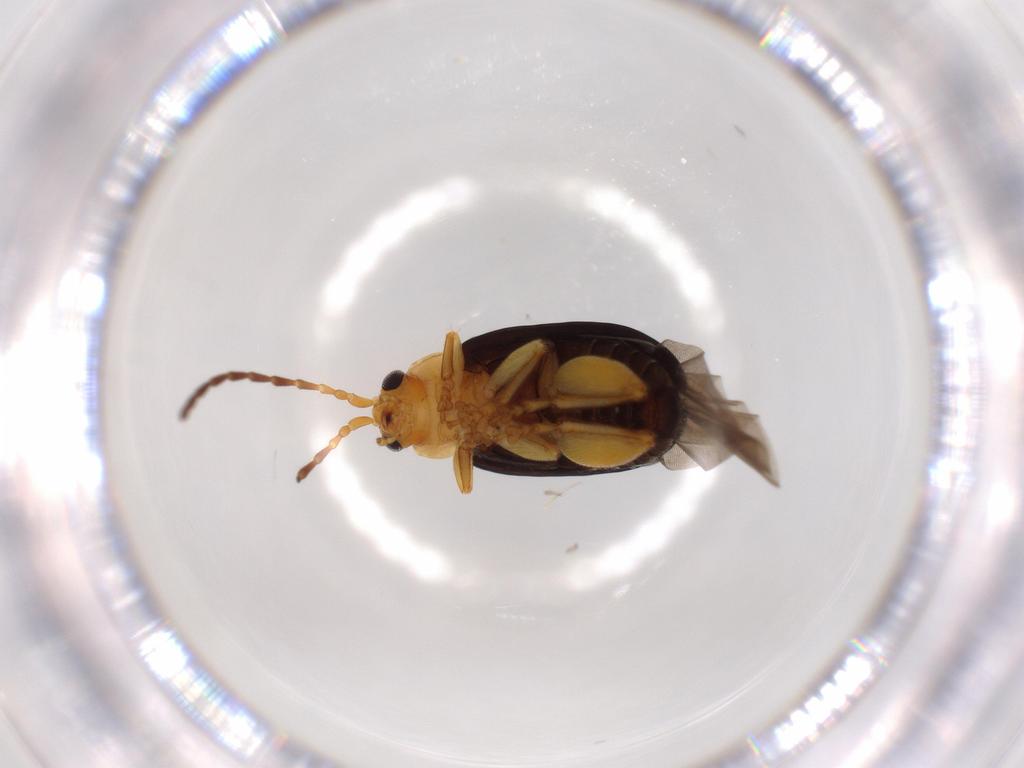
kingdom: Animalia
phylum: Arthropoda
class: Insecta
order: Coleoptera
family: Chrysomelidae
